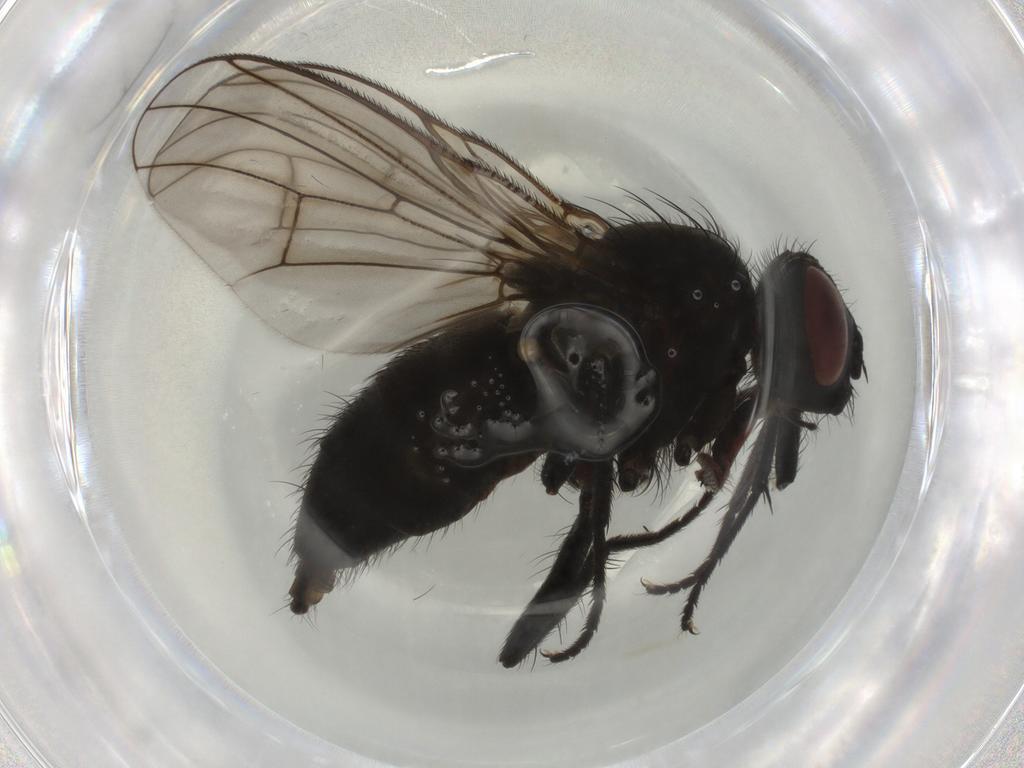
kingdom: Animalia
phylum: Arthropoda
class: Insecta
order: Diptera
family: Muscidae
